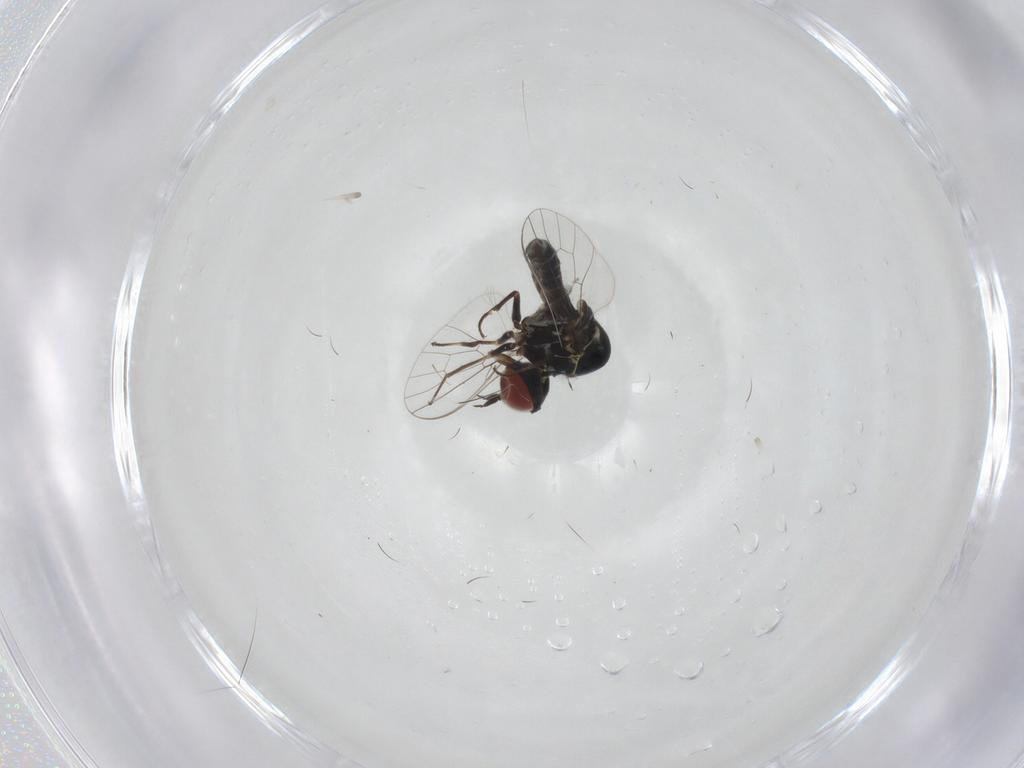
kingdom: Animalia
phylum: Arthropoda
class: Insecta
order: Diptera
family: Mythicomyiidae
